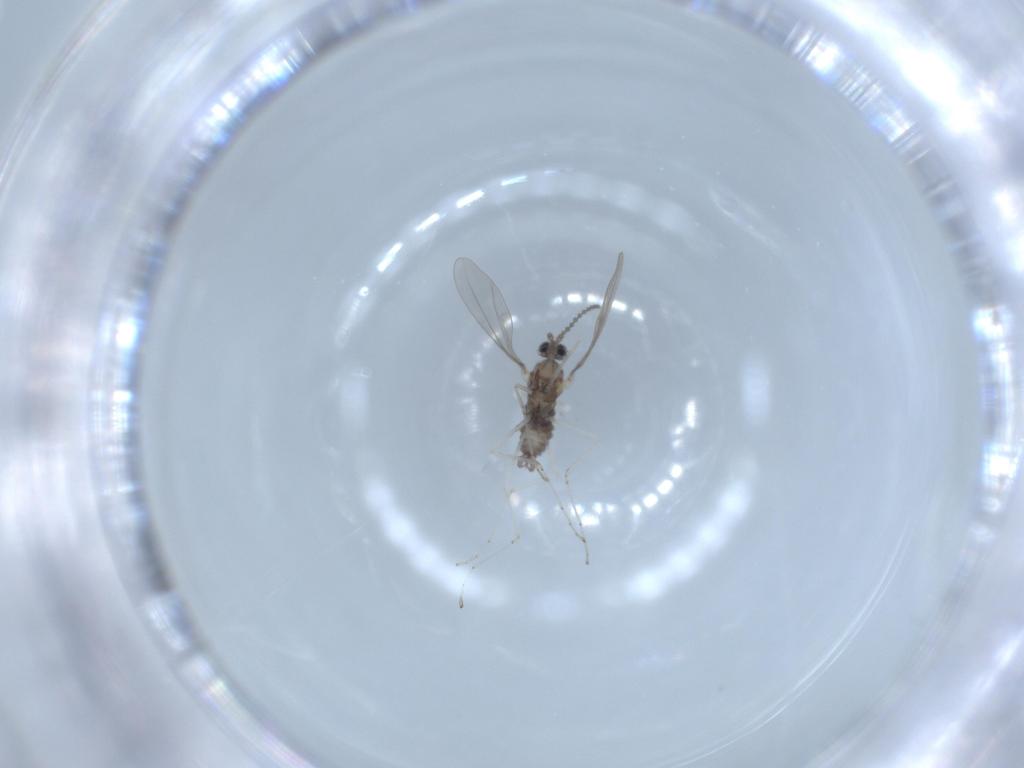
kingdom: Animalia
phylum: Arthropoda
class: Insecta
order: Diptera
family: Cecidomyiidae
